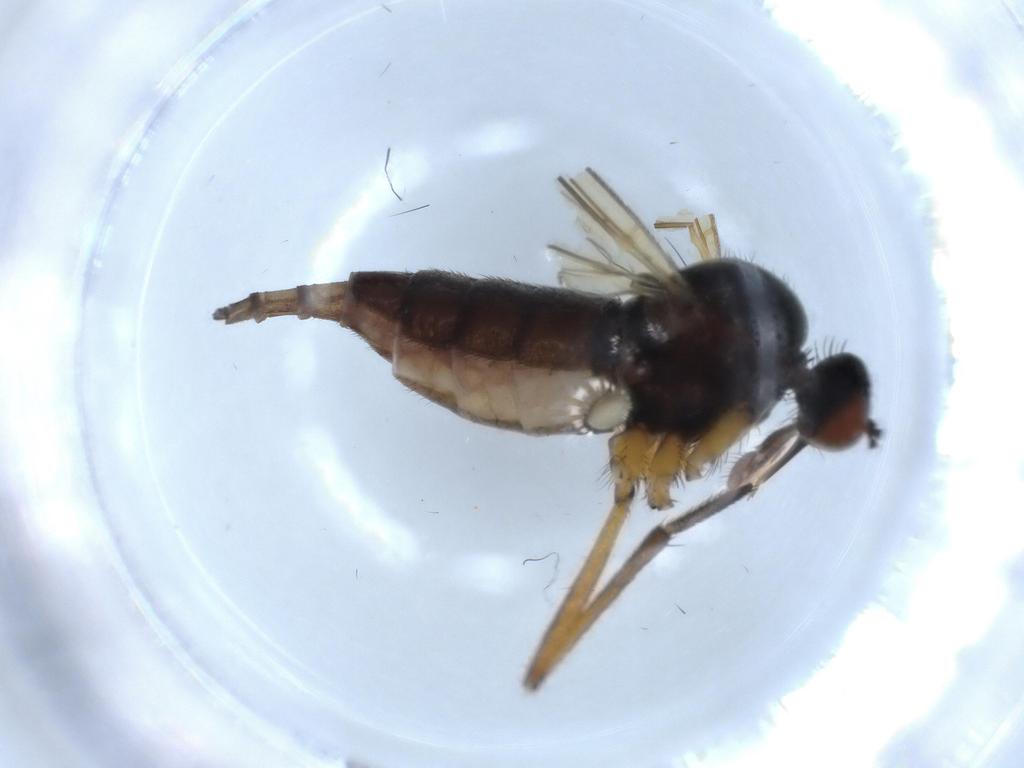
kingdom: Animalia
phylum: Arthropoda
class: Insecta
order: Diptera
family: Empididae
